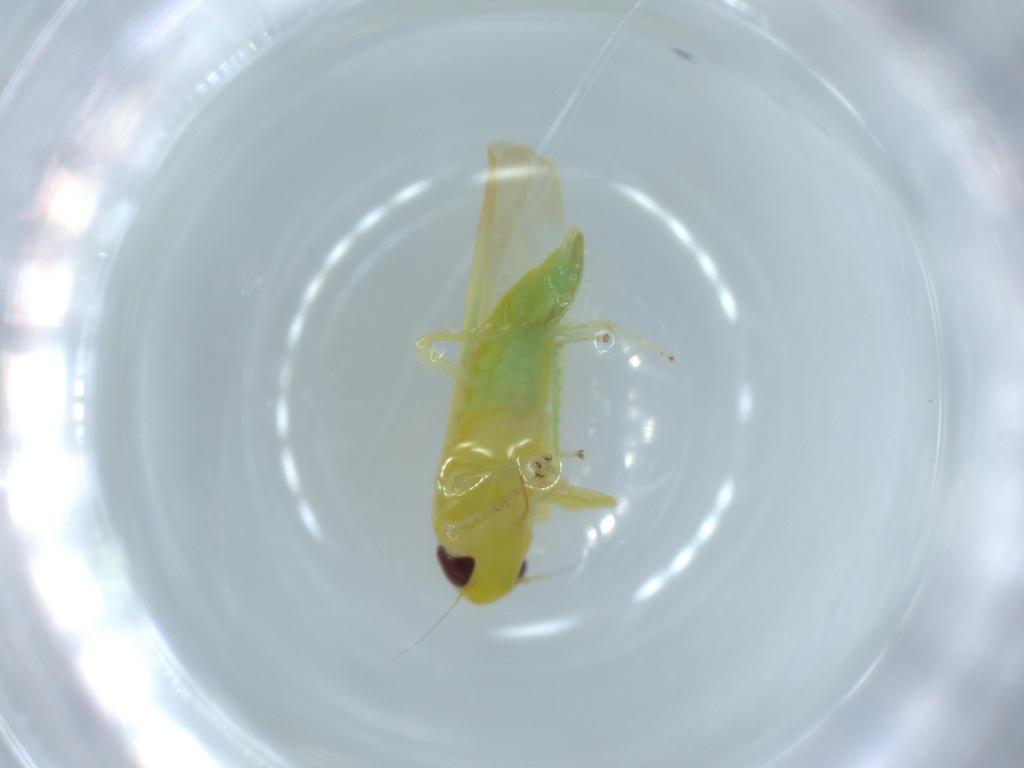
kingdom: Animalia
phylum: Arthropoda
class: Insecta
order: Hemiptera
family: Cicadellidae
